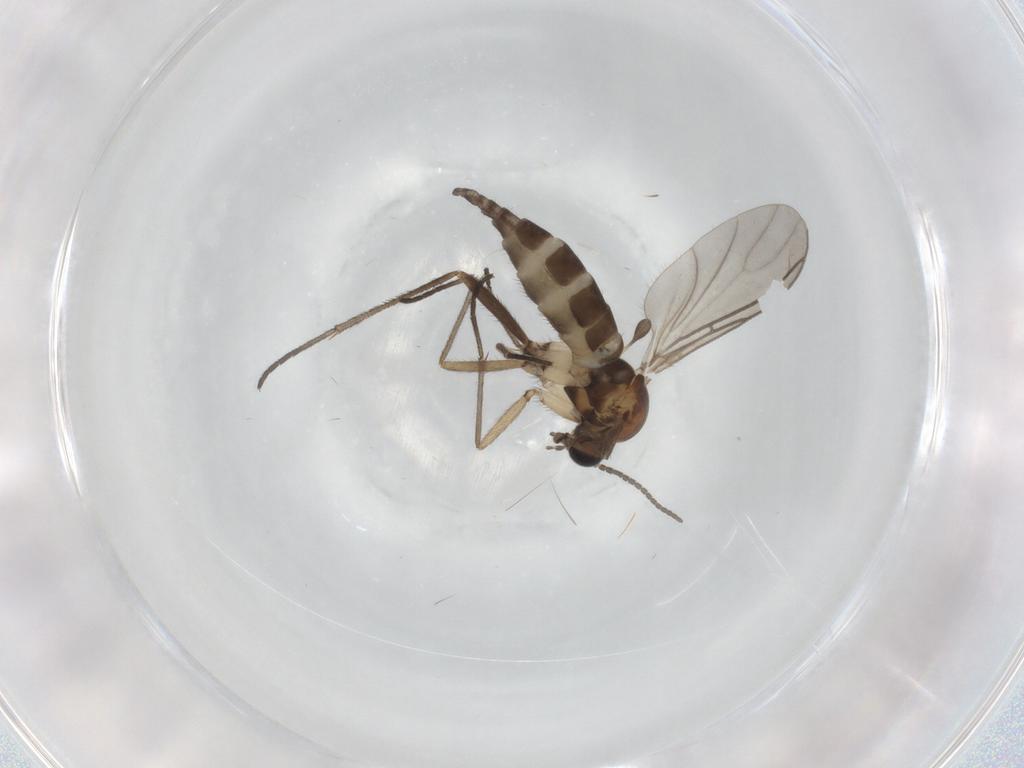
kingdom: Animalia
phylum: Arthropoda
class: Insecta
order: Diptera
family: Sciaridae
